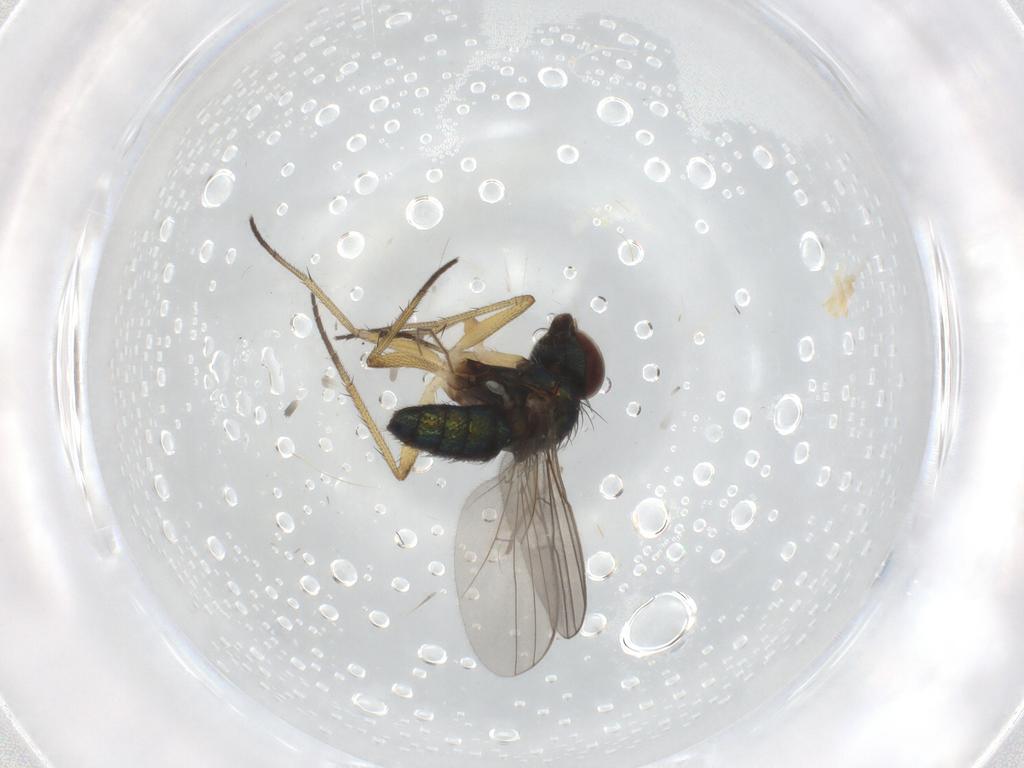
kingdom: Animalia
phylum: Arthropoda
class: Insecta
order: Diptera
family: Psychodidae
